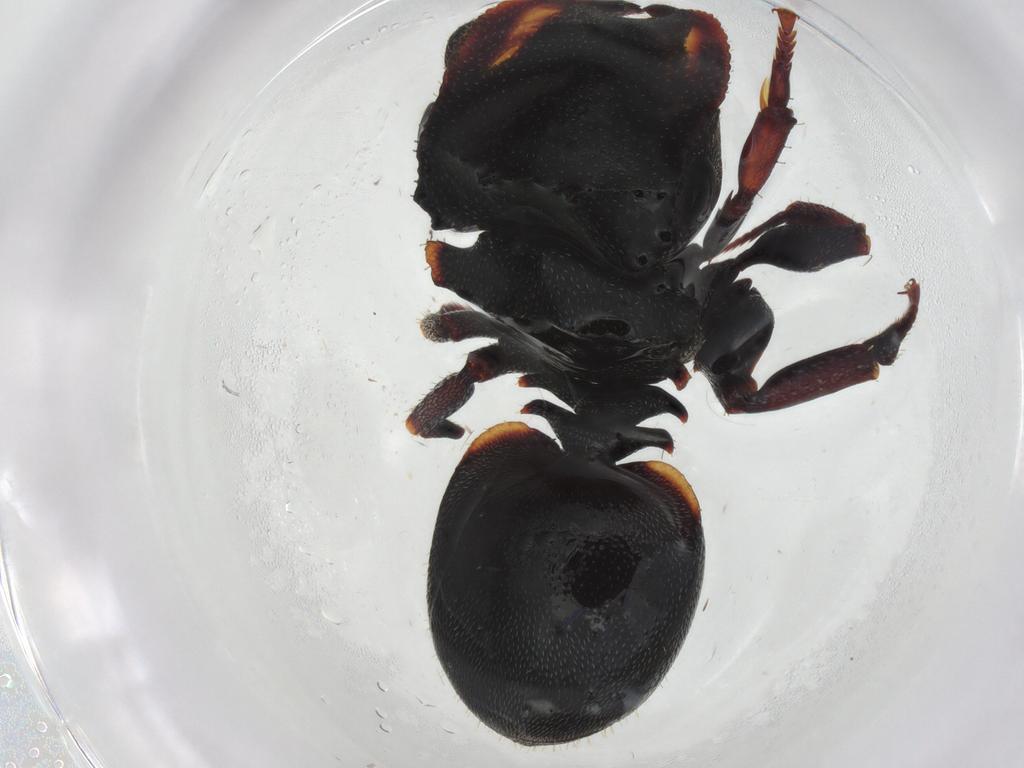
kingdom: Animalia
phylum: Arthropoda
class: Insecta
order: Hymenoptera
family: Formicidae
